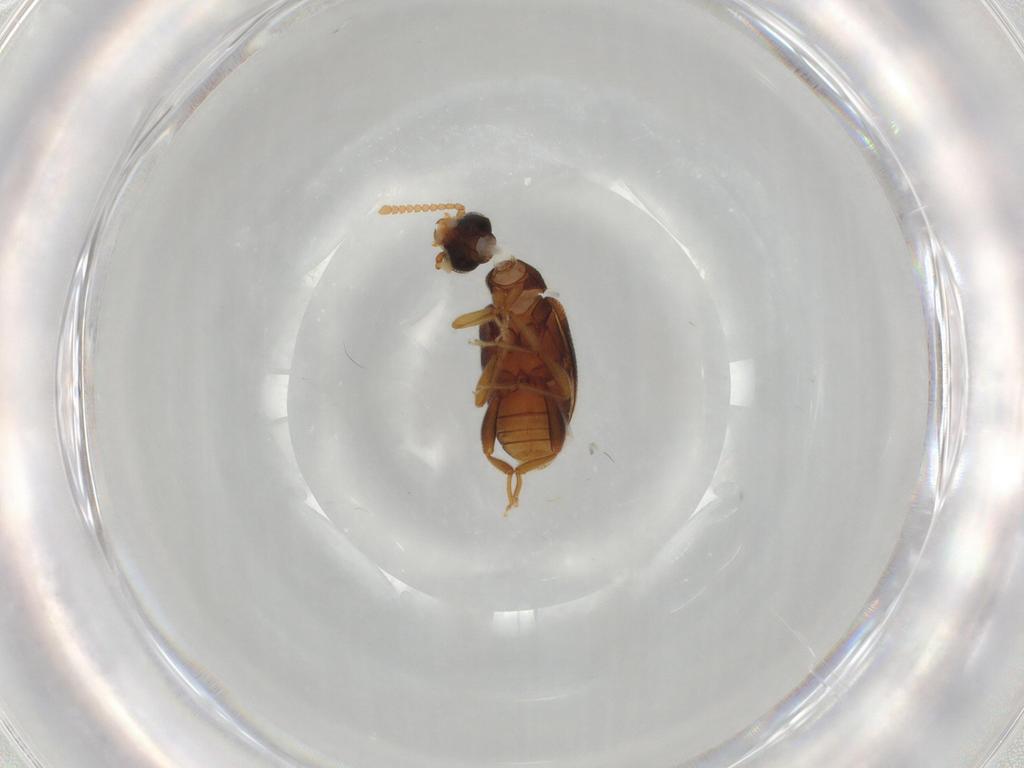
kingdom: Animalia
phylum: Arthropoda
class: Insecta
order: Coleoptera
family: Aderidae
